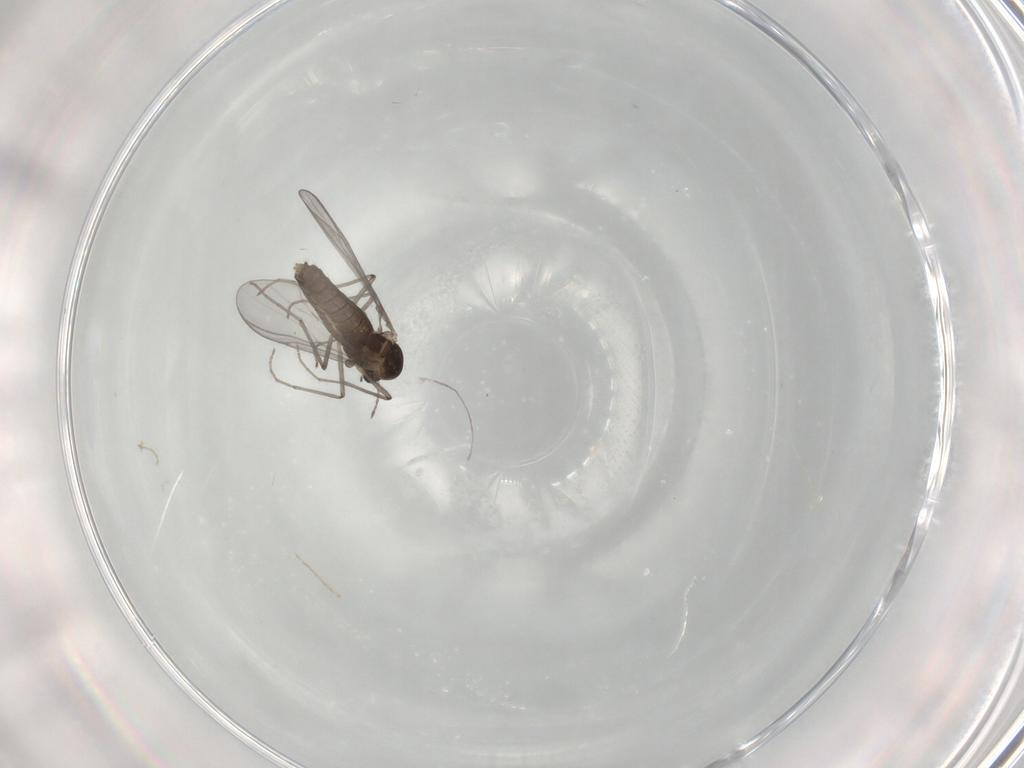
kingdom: Animalia
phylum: Arthropoda
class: Insecta
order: Diptera
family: Chironomidae
